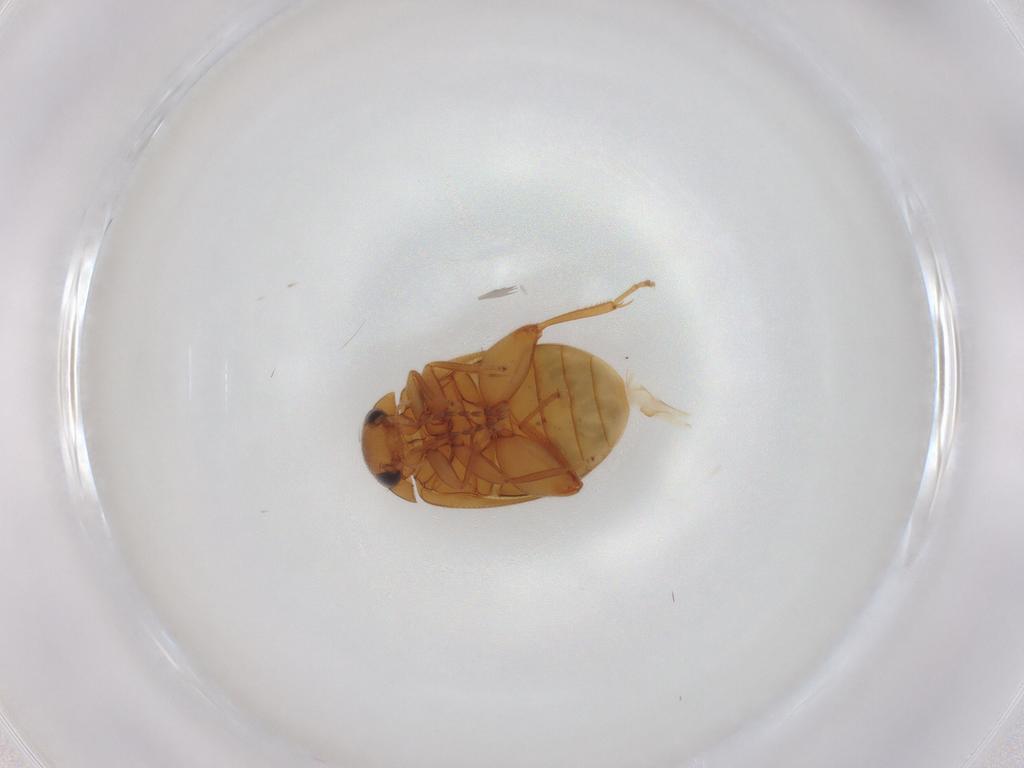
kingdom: Animalia
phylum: Arthropoda
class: Insecta
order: Coleoptera
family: Scirtidae
